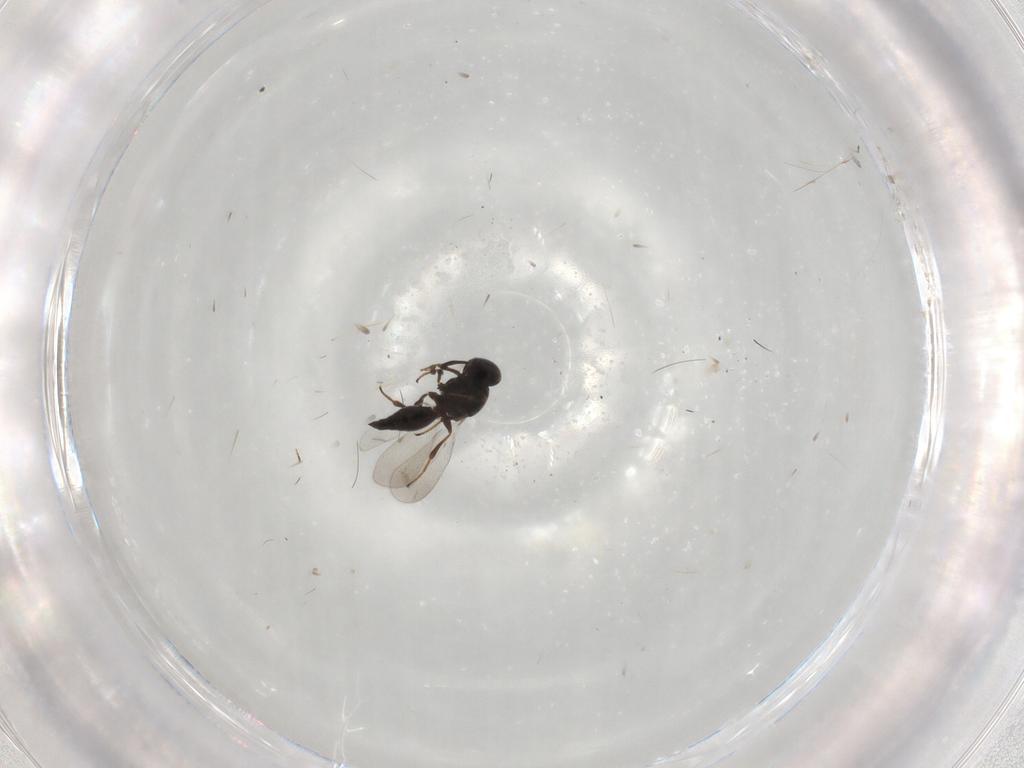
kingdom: Animalia
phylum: Arthropoda
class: Insecta
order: Hymenoptera
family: Platygastridae
